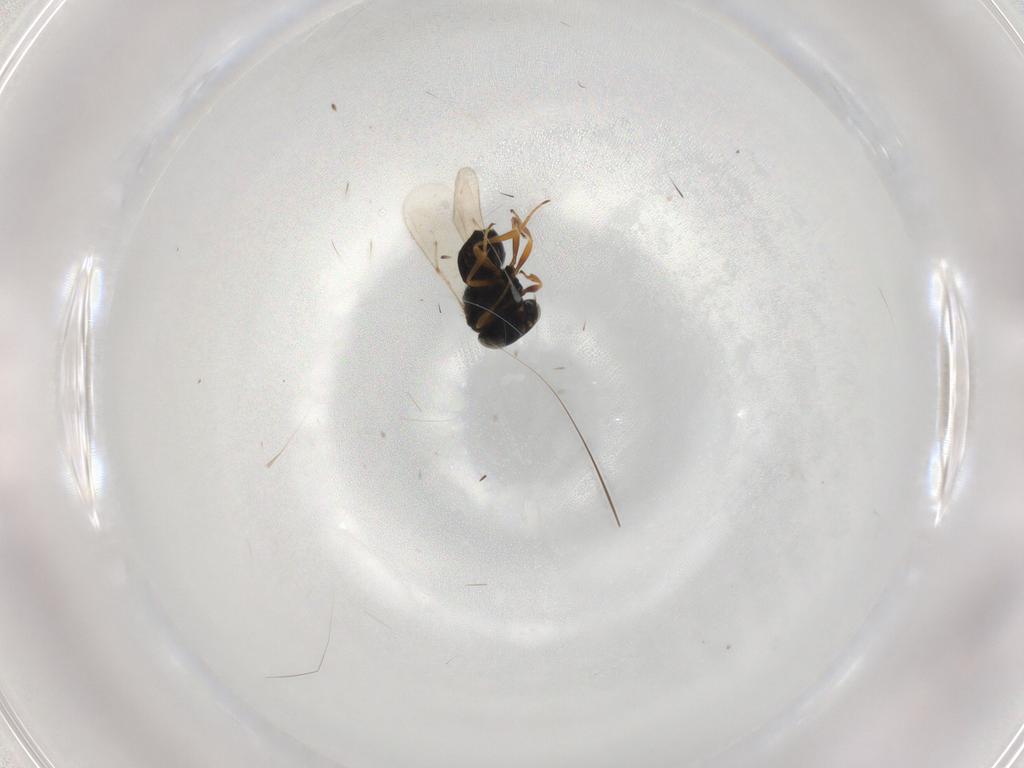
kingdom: Animalia
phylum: Arthropoda
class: Insecta
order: Hymenoptera
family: Scelionidae
